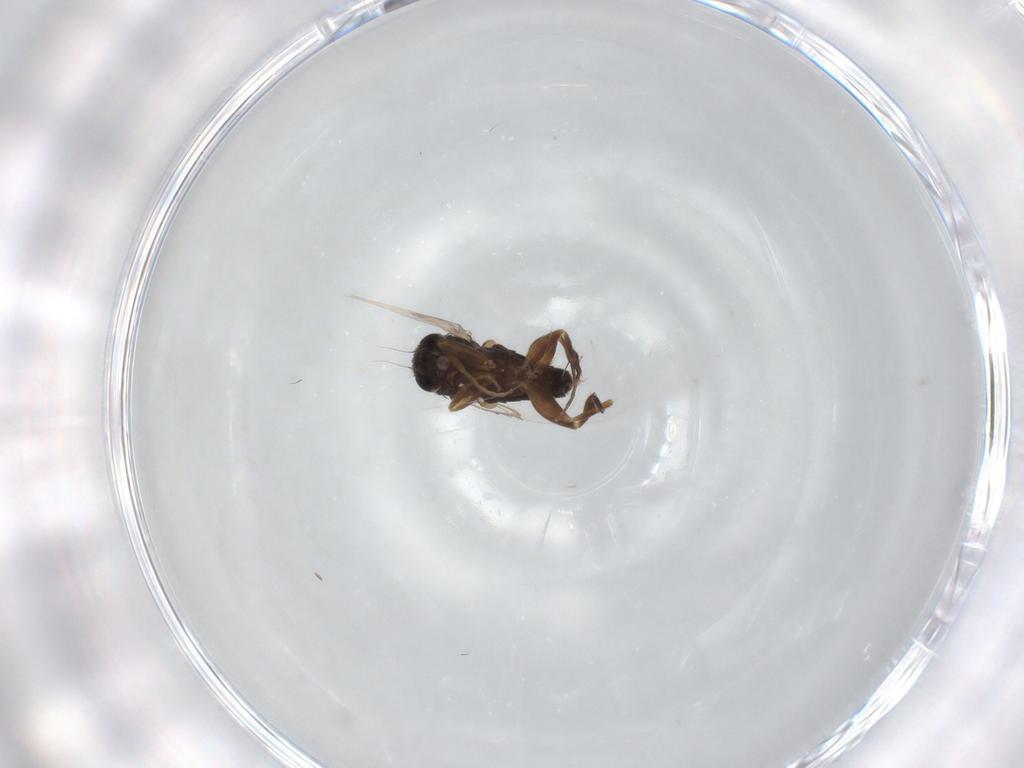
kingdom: Animalia
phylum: Arthropoda
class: Insecta
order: Diptera
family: Phoridae
